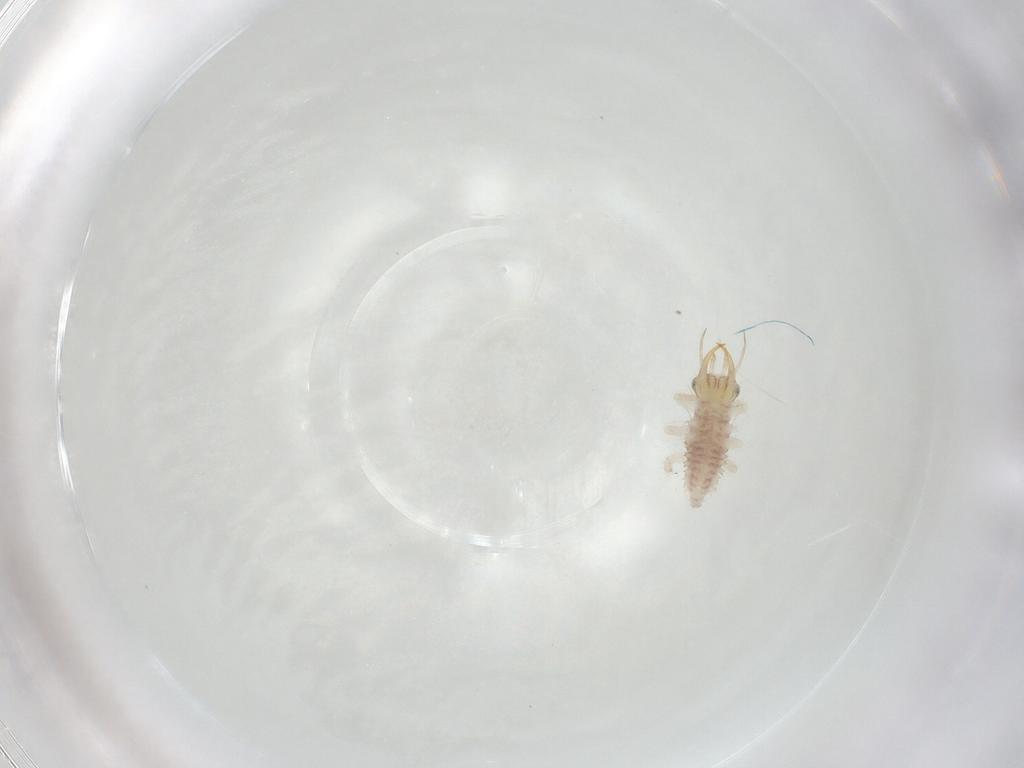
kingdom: Animalia
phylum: Arthropoda
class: Insecta
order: Neuroptera
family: Chrysopidae
